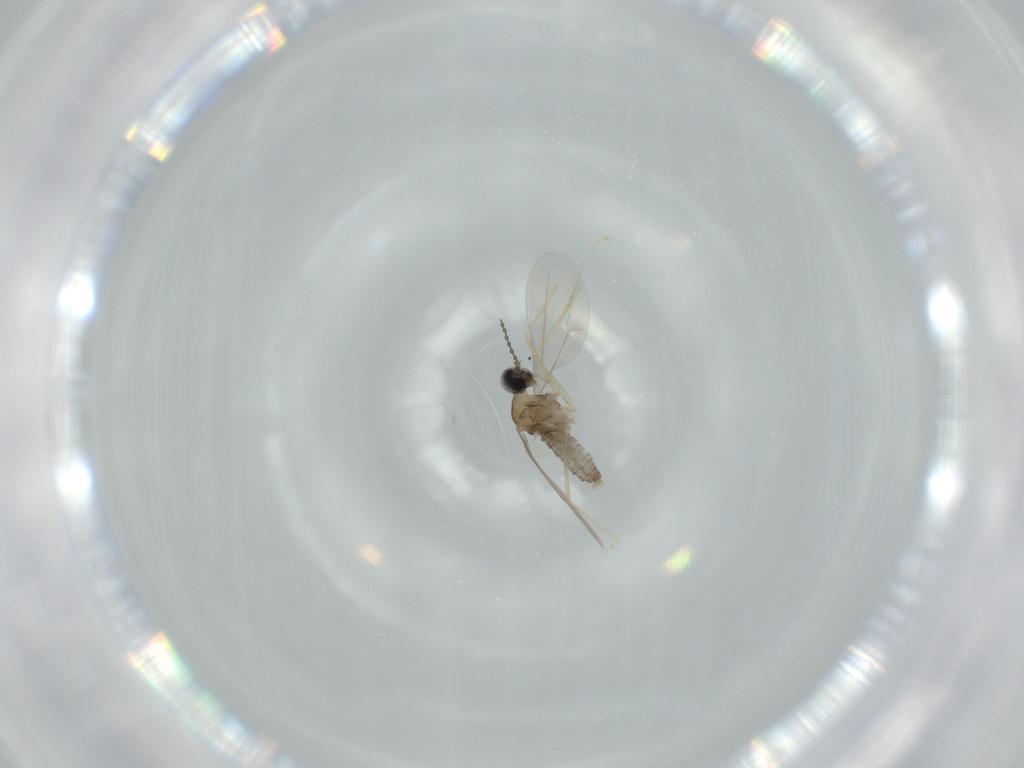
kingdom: Animalia
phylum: Arthropoda
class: Insecta
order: Diptera
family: Cecidomyiidae
